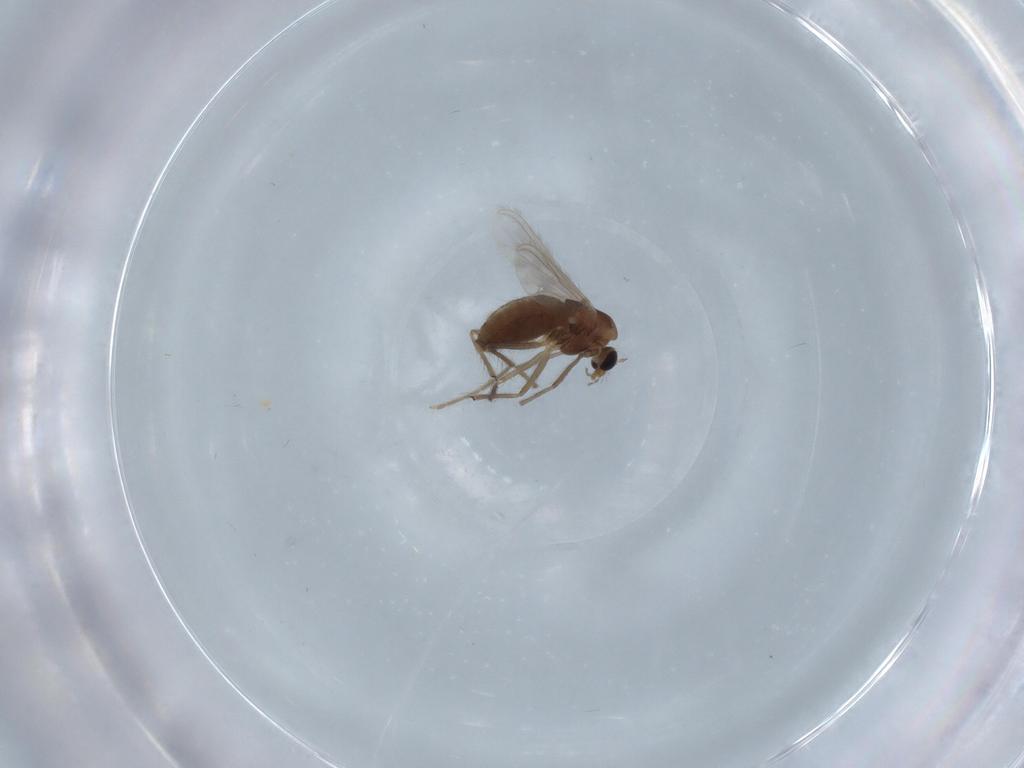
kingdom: Animalia
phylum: Arthropoda
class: Insecta
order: Diptera
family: Chironomidae
